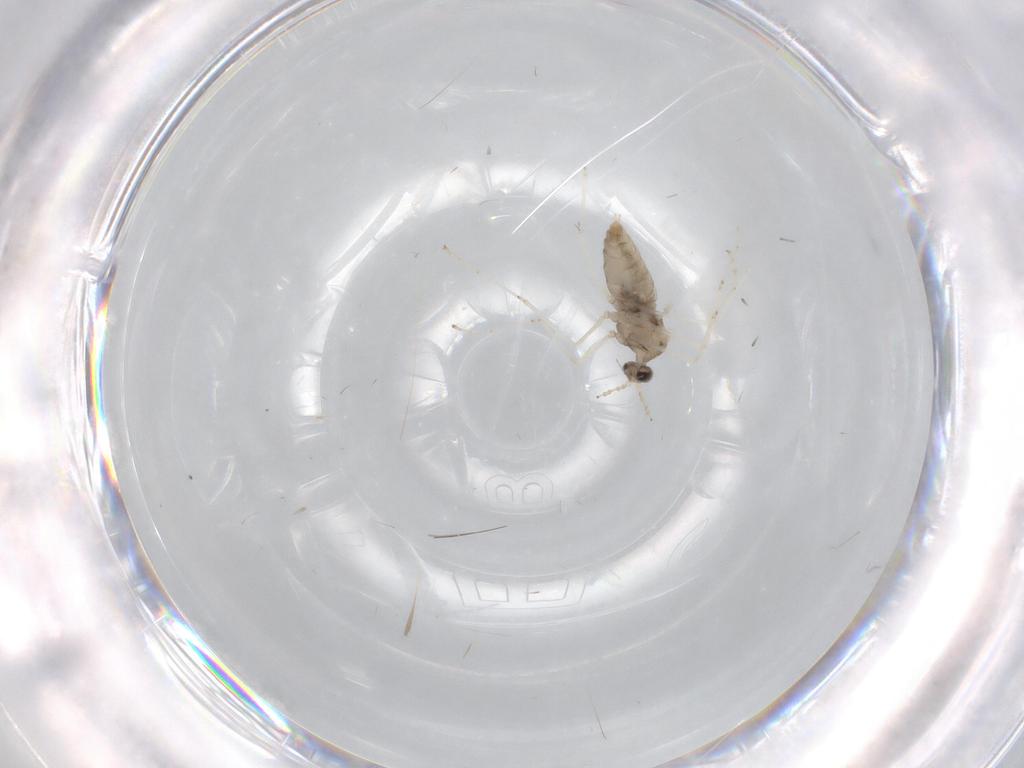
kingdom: Animalia
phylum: Arthropoda
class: Insecta
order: Diptera
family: Cecidomyiidae
